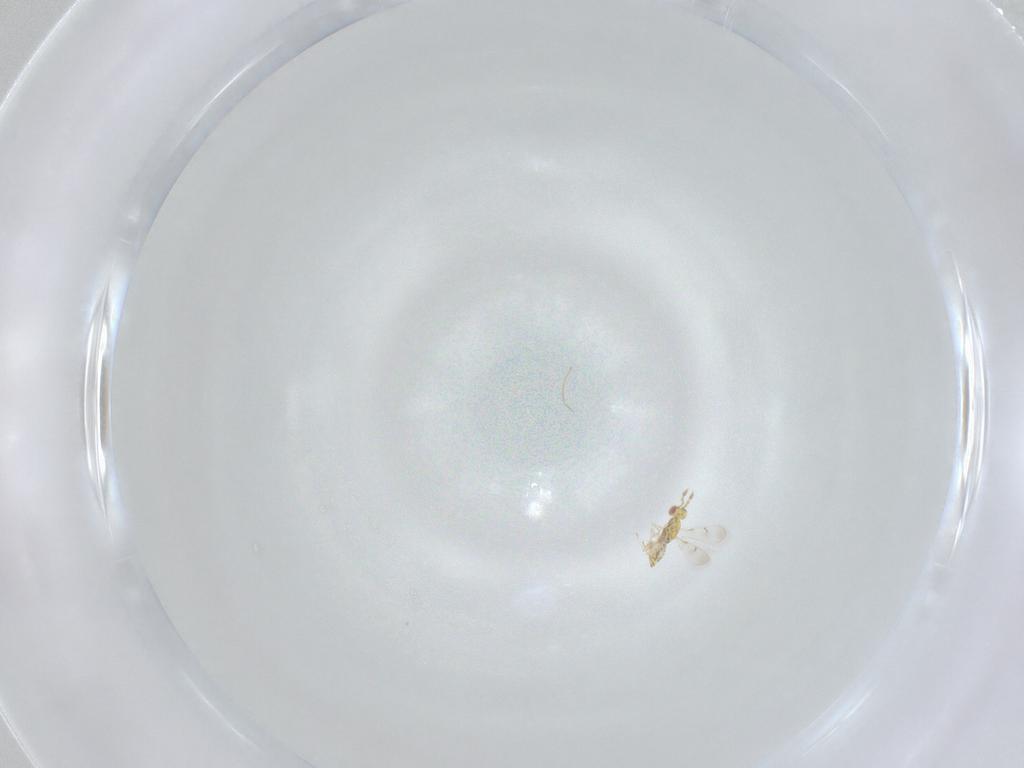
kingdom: Animalia
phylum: Arthropoda
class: Insecta
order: Hymenoptera
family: Eulophidae
